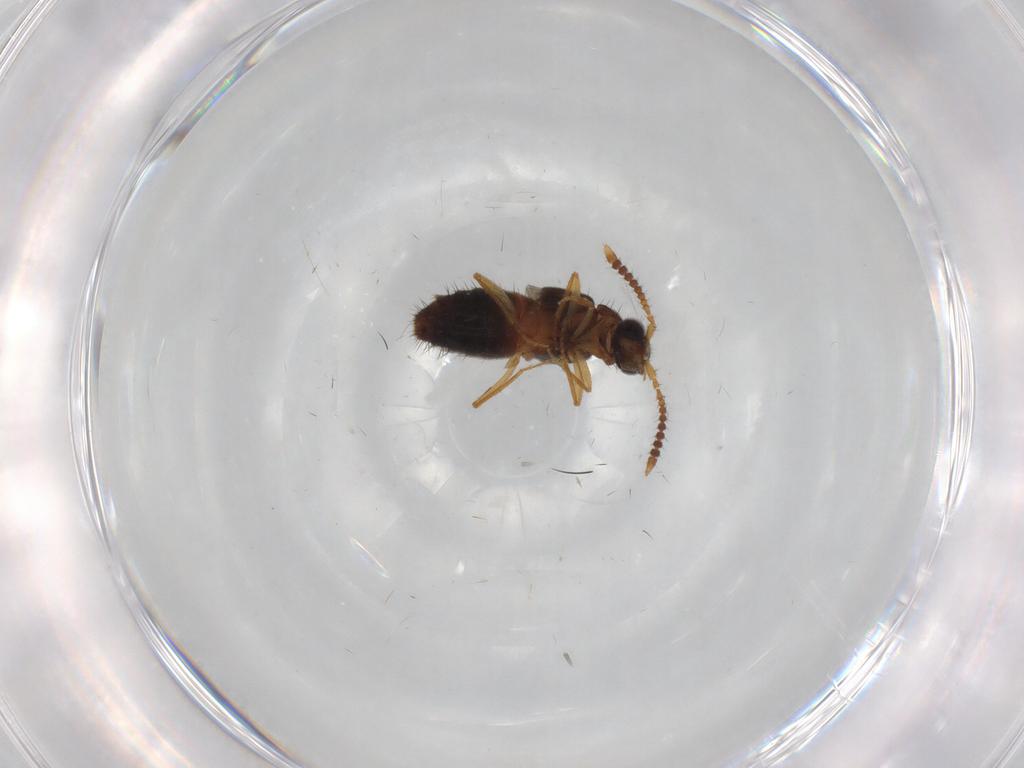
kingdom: Animalia
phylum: Arthropoda
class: Insecta
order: Coleoptera
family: Staphylinidae
